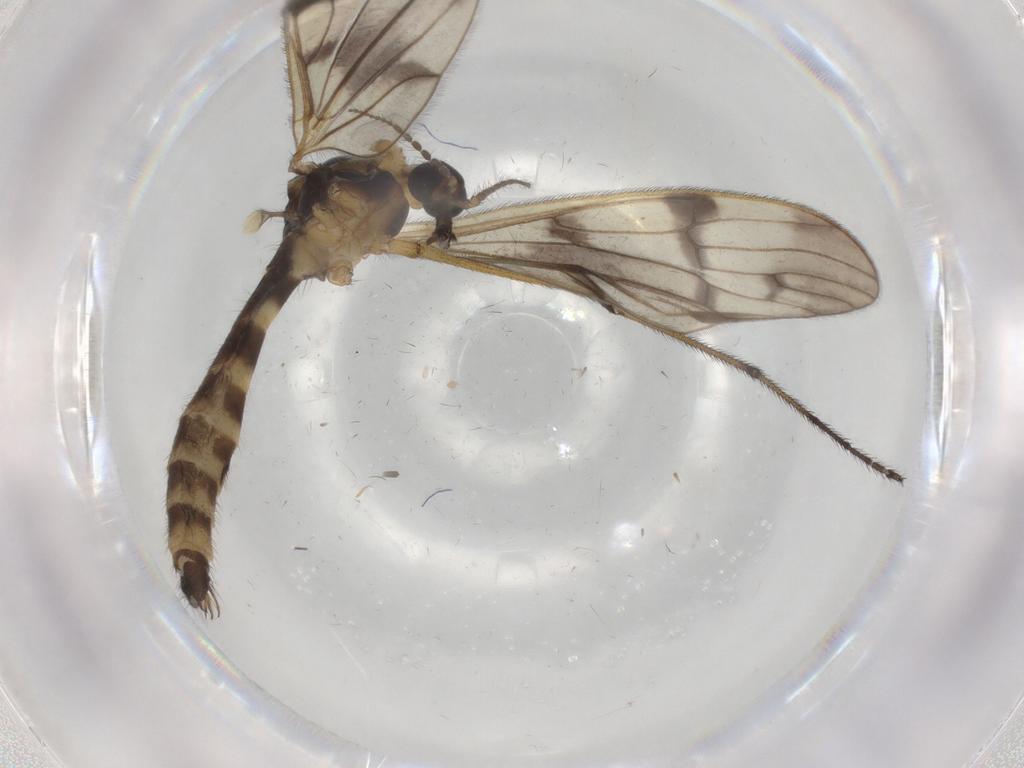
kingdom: Animalia
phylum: Arthropoda
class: Insecta
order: Diptera
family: Limoniidae
